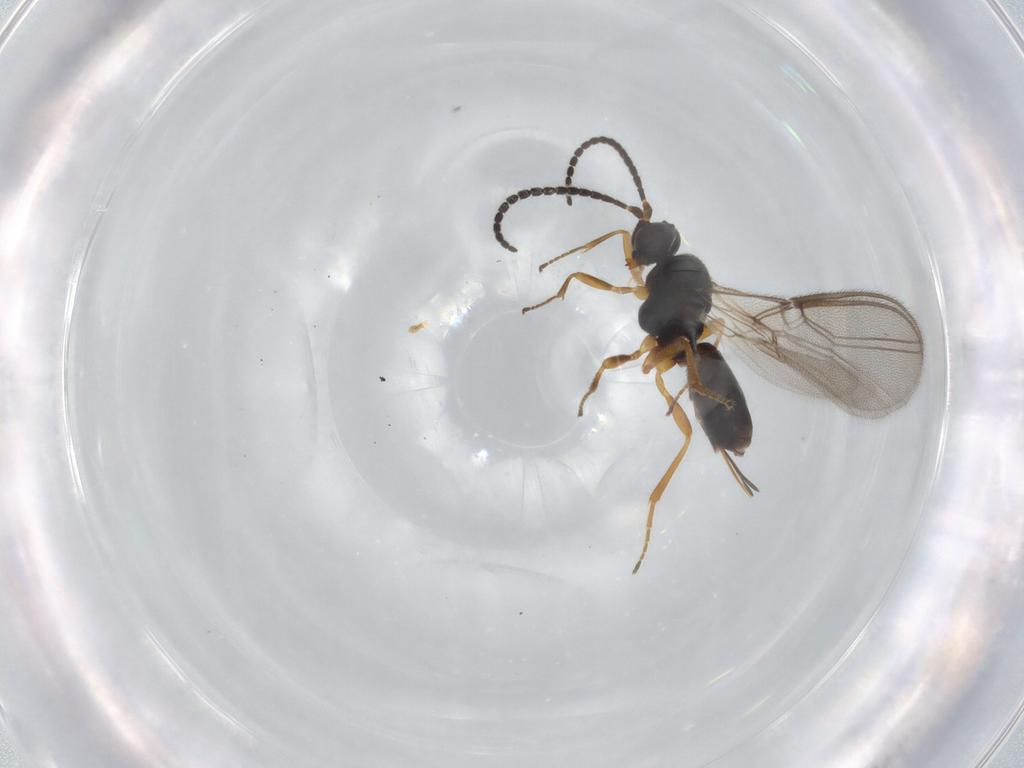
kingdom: Animalia
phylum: Arthropoda
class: Insecta
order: Hymenoptera
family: Braconidae
